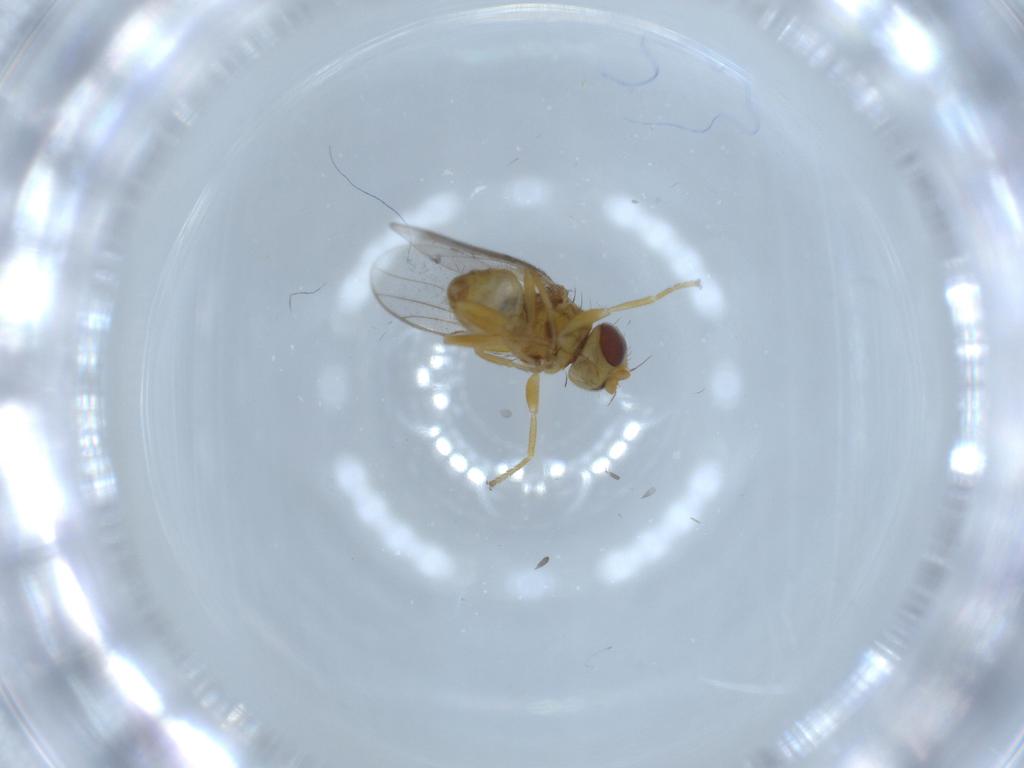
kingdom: Animalia
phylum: Arthropoda
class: Insecta
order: Diptera
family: Chloropidae
